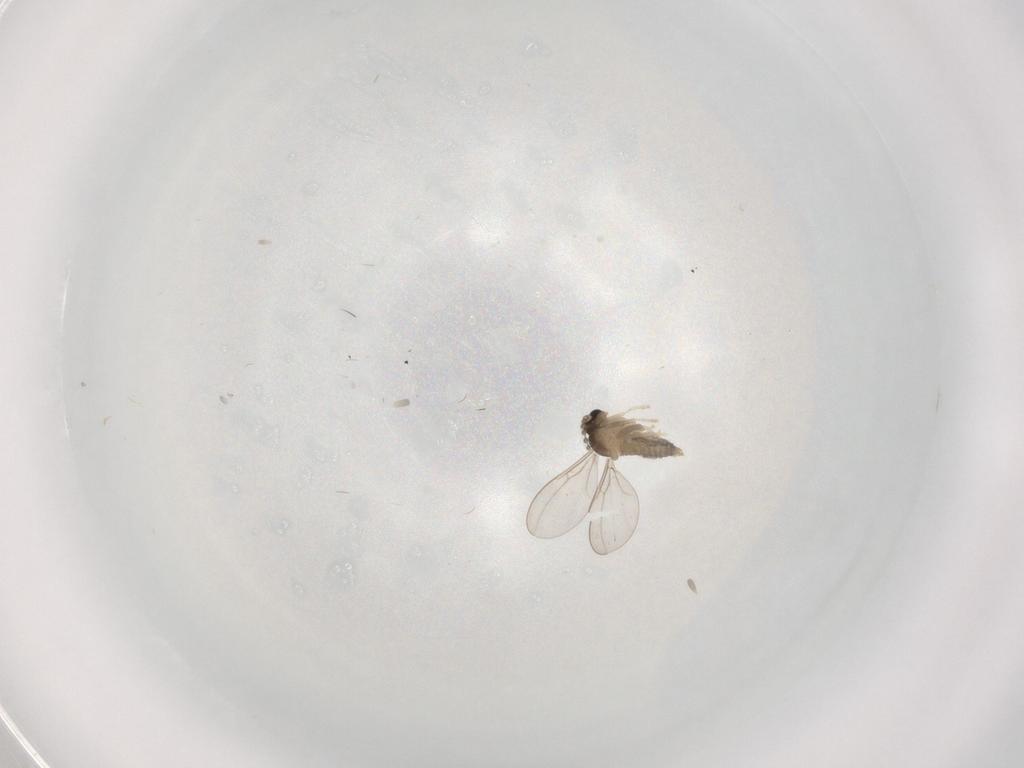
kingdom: Animalia
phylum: Arthropoda
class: Insecta
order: Diptera
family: Cecidomyiidae
